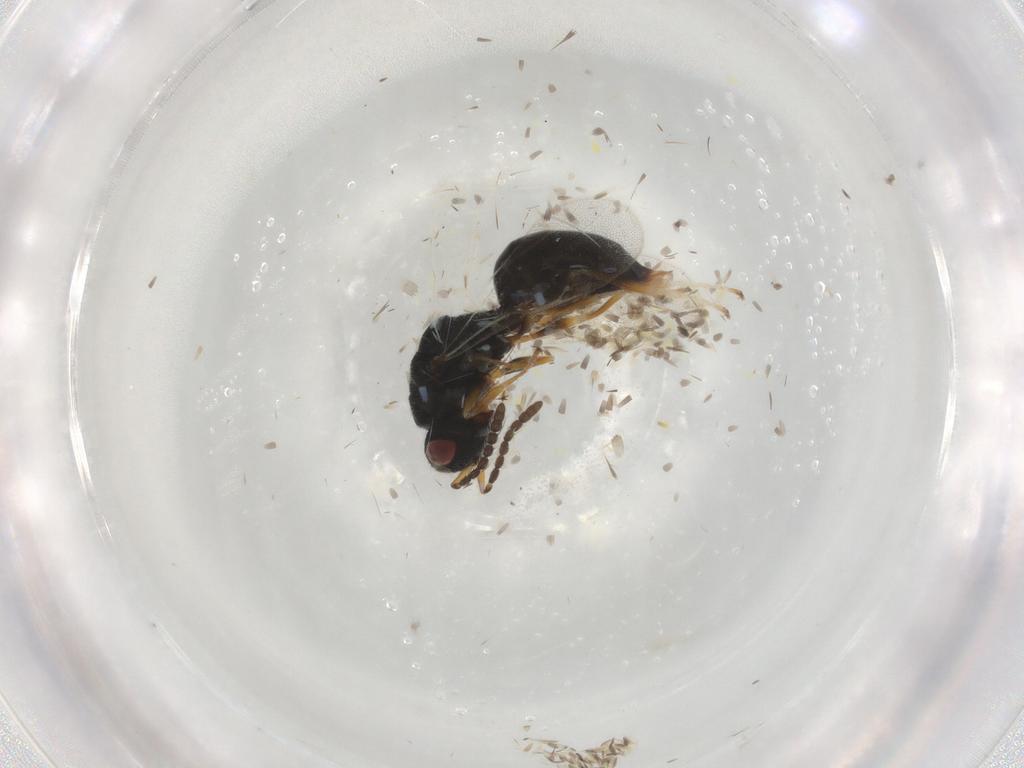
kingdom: Animalia
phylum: Arthropoda
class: Insecta
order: Hymenoptera
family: Eurytomidae
